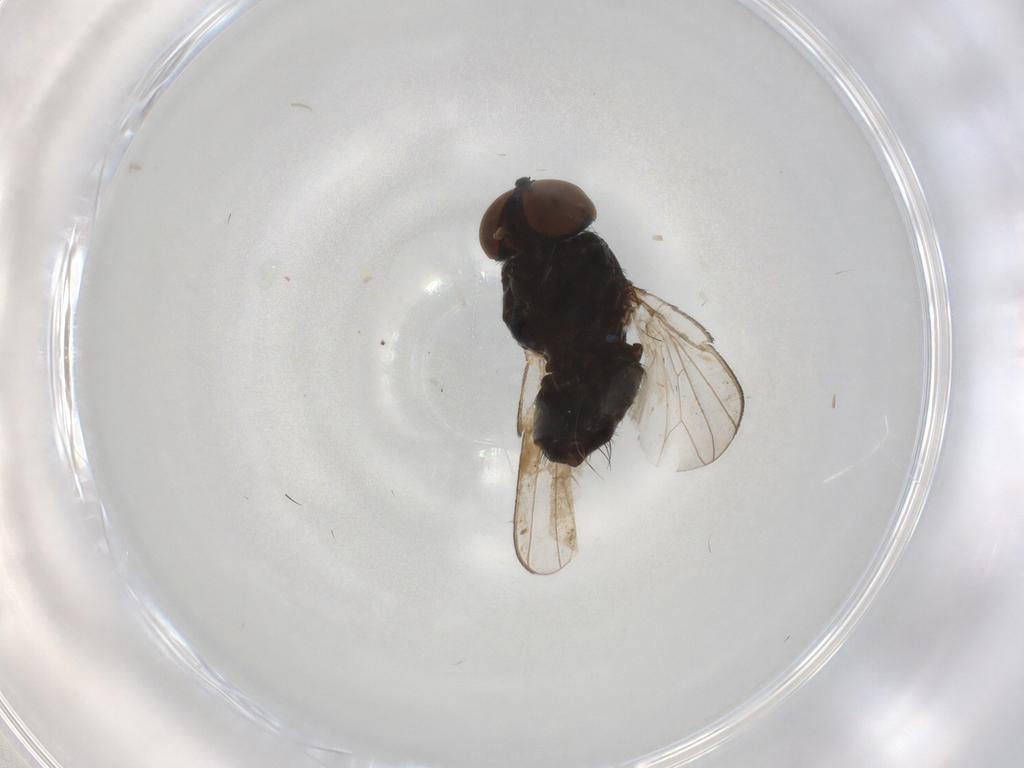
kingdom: Animalia
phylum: Arthropoda
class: Insecta
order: Diptera
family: Milichiidae
